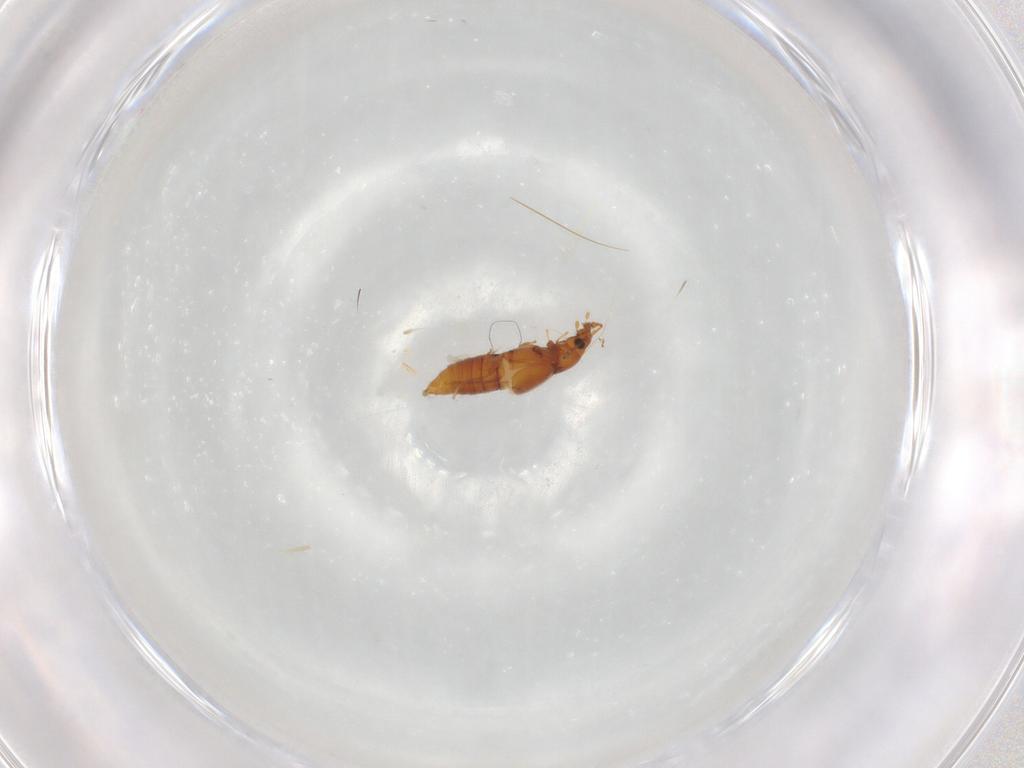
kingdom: Animalia
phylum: Arthropoda
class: Insecta
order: Coleoptera
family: Staphylinidae
